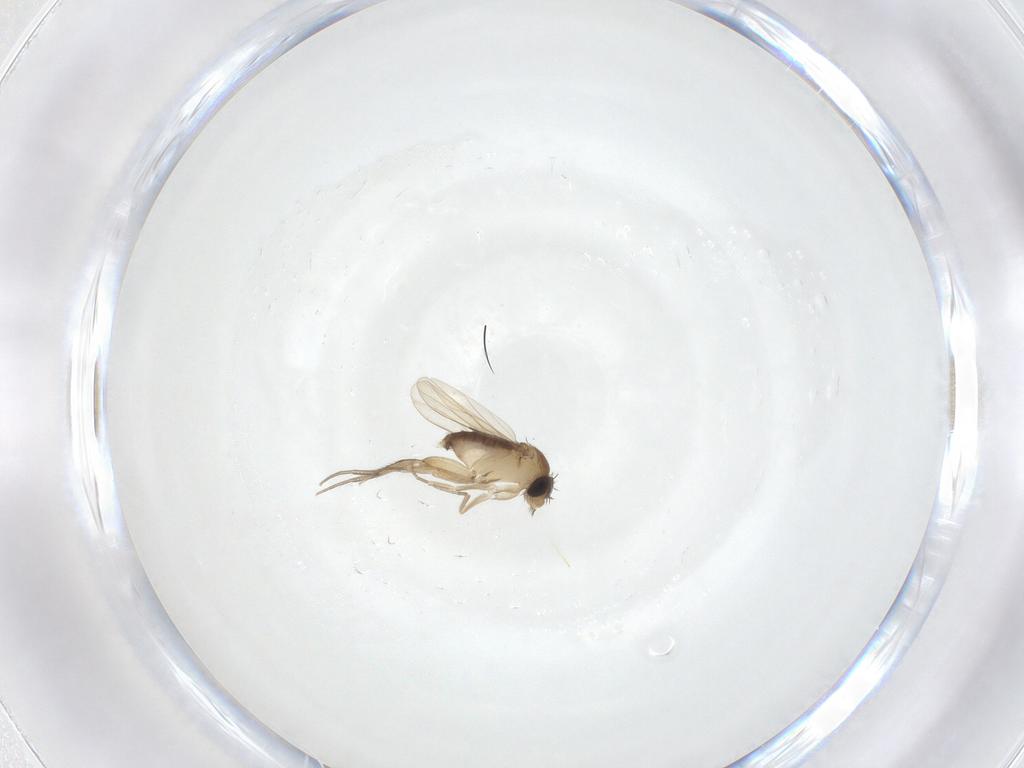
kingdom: Animalia
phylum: Arthropoda
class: Insecta
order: Diptera
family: Phoridae
